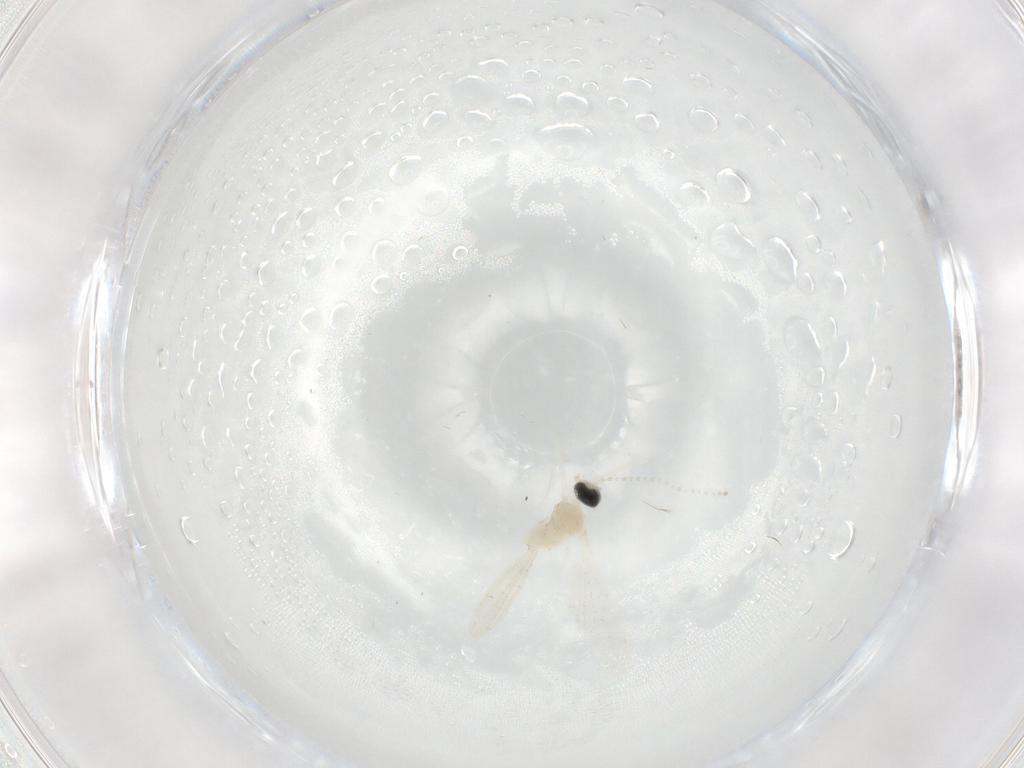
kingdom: Animalia
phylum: Arthropoda
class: Insecta
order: Diptera
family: Cecidomyiidae
